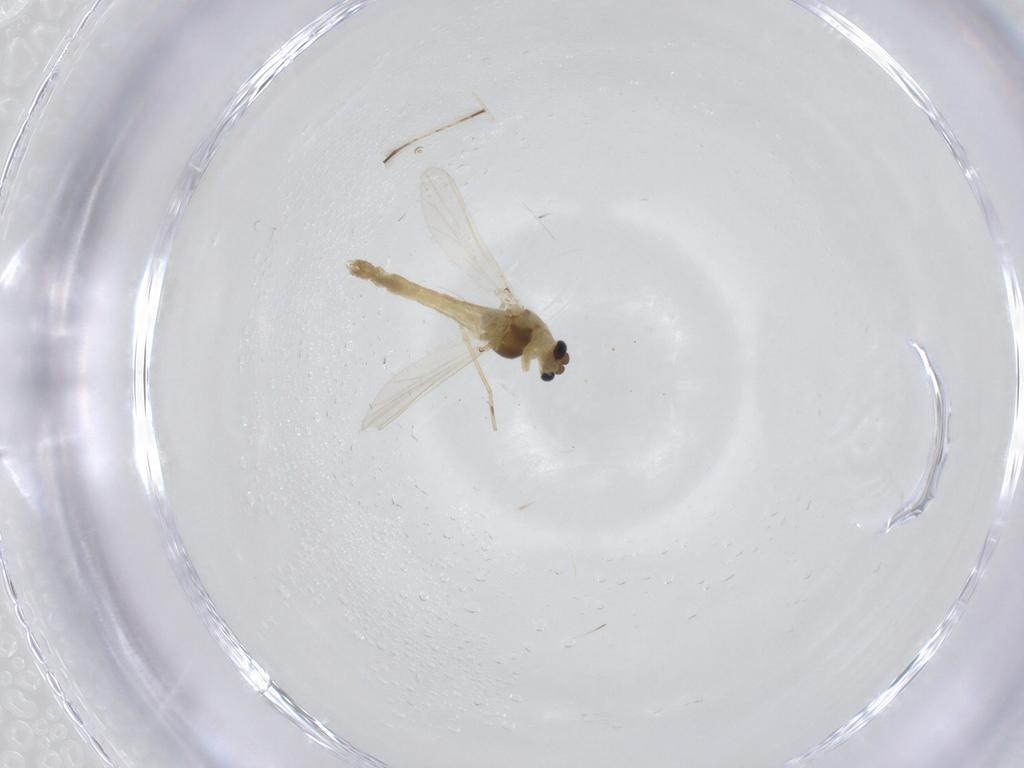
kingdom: Animalia
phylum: Arthropoda
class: Insecta
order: Diptera
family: Chironomidae
